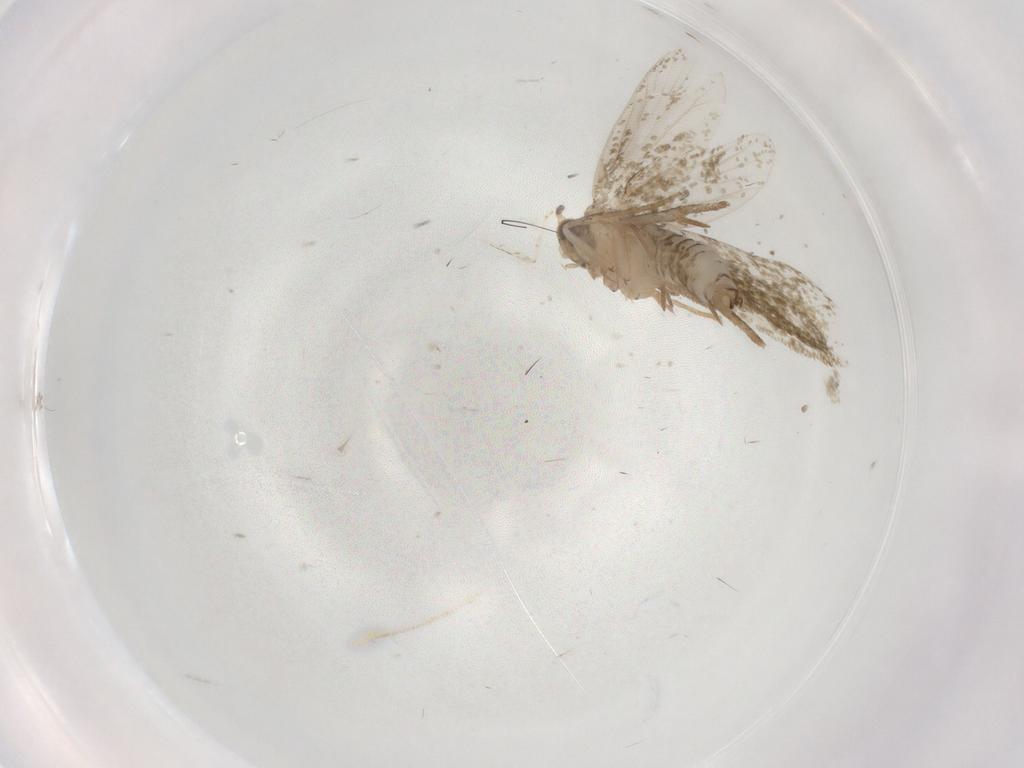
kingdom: Animalia
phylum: Arthropoda
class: Insecta
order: Lepidoptera
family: Tineidae
